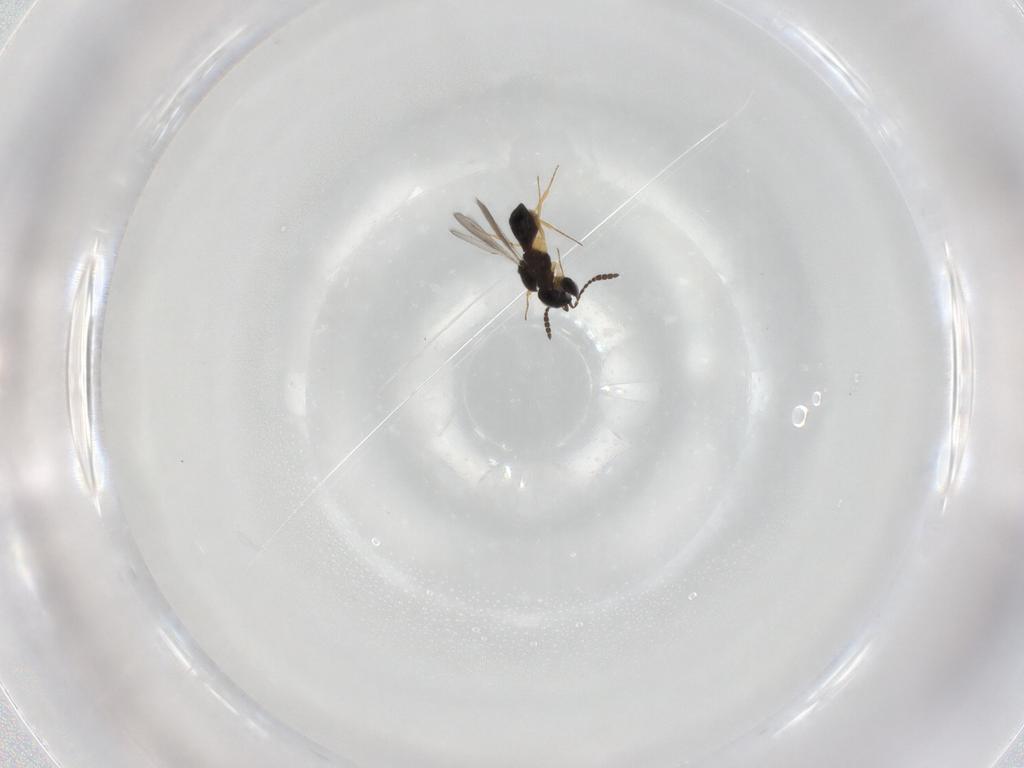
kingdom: Animalia
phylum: Arthropoda
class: Insecta
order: Hymenoptera
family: Scelionidae
